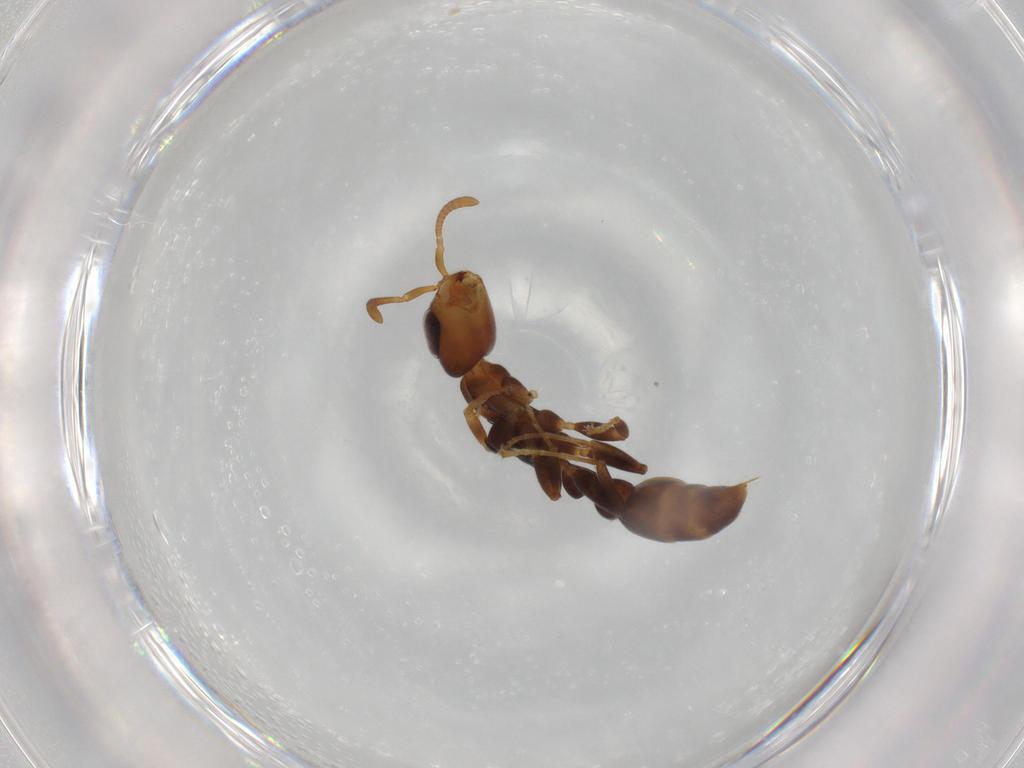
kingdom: Animalia
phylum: Arthropoda
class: Insecta
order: Hymenoptera
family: Formicidae
